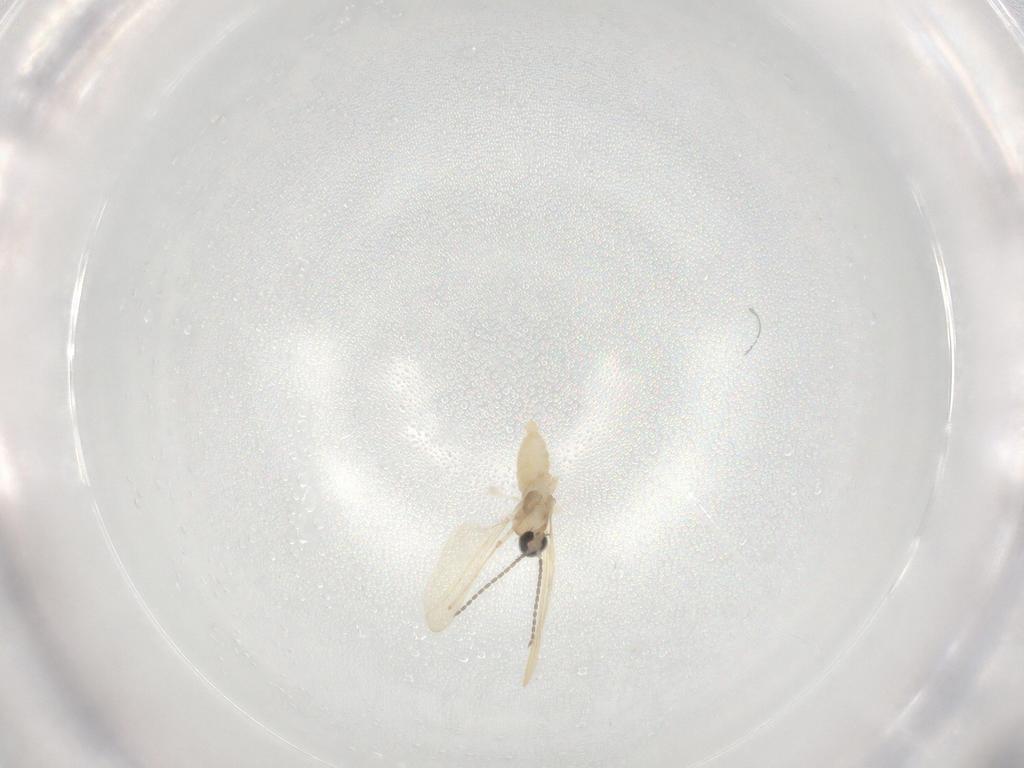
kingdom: Animalia
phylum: Arthropoda
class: Insecta
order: Diptera
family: Cecidomyiidae
